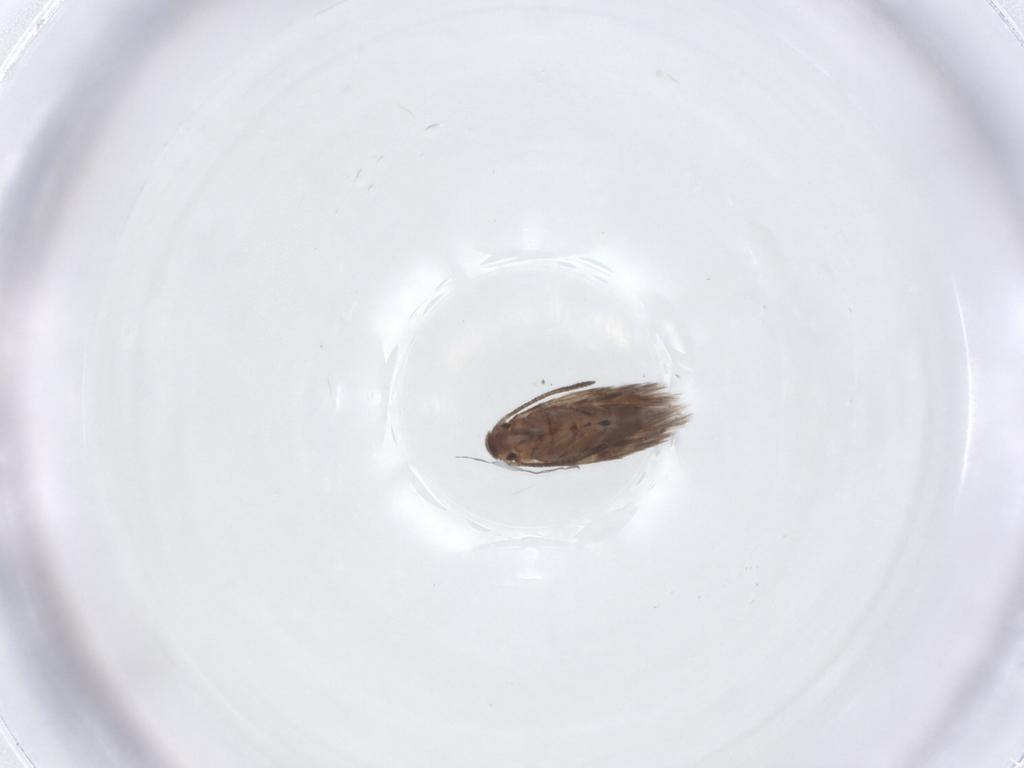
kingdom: Animalia
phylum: Arthropoda
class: Insecta
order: Lepidoptera
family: Lyonetiidae
